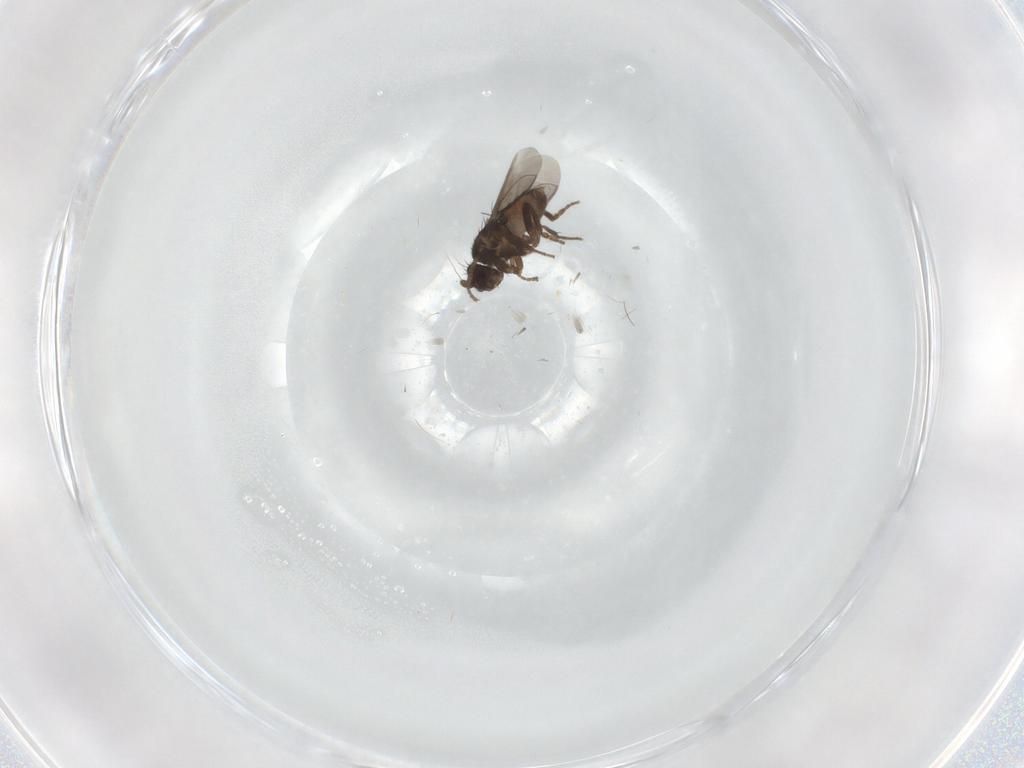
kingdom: Animalia
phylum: Arthropoda
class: Insecta
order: Diptera
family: Sphaeroceridae
